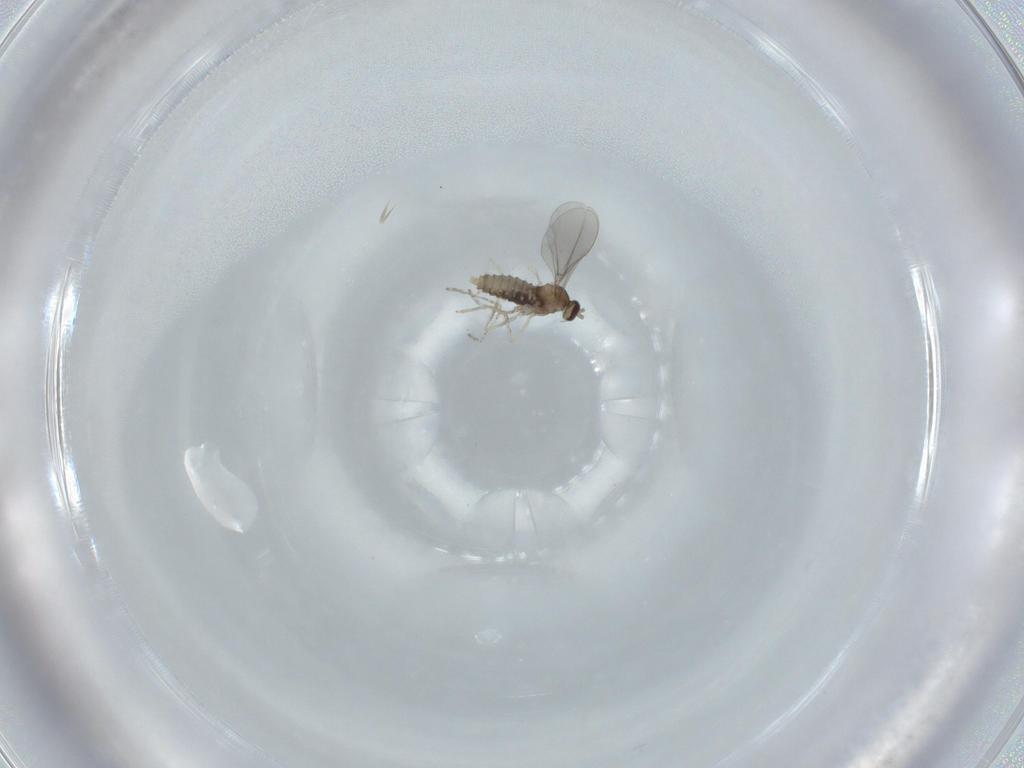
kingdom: Animalia
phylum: Arthropoda
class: Insecta
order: Diptera
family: Cecidomyiidae
